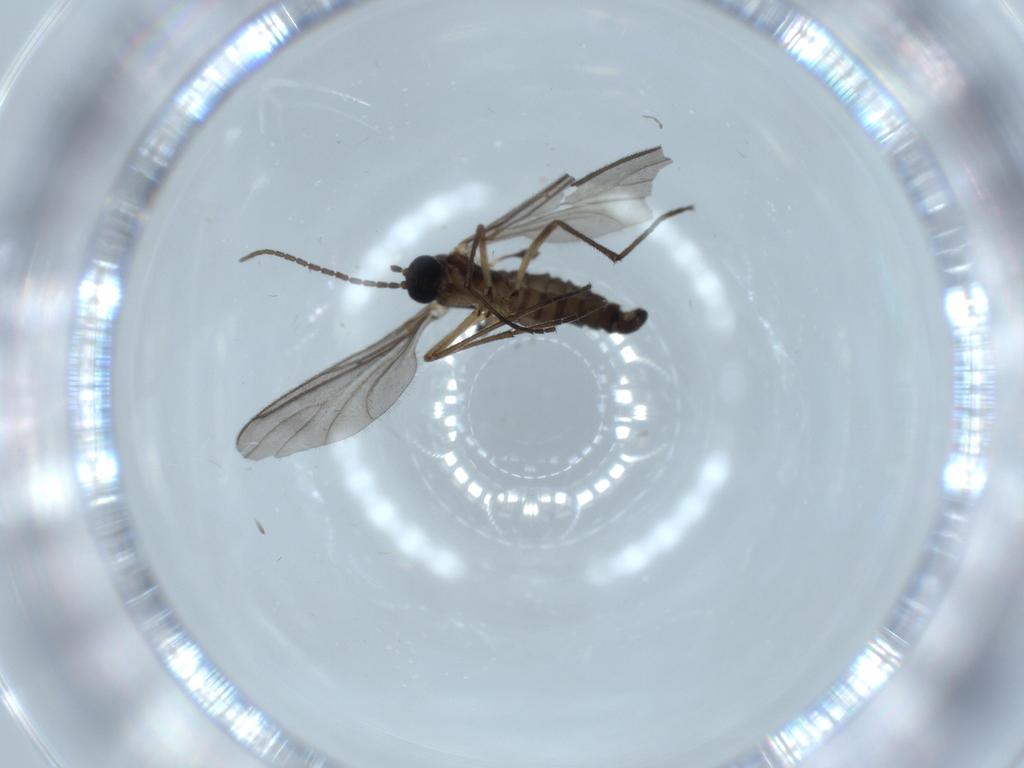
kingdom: Animalia
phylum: Arthropoda
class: Insecta
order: Diptera
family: Sciaridae
